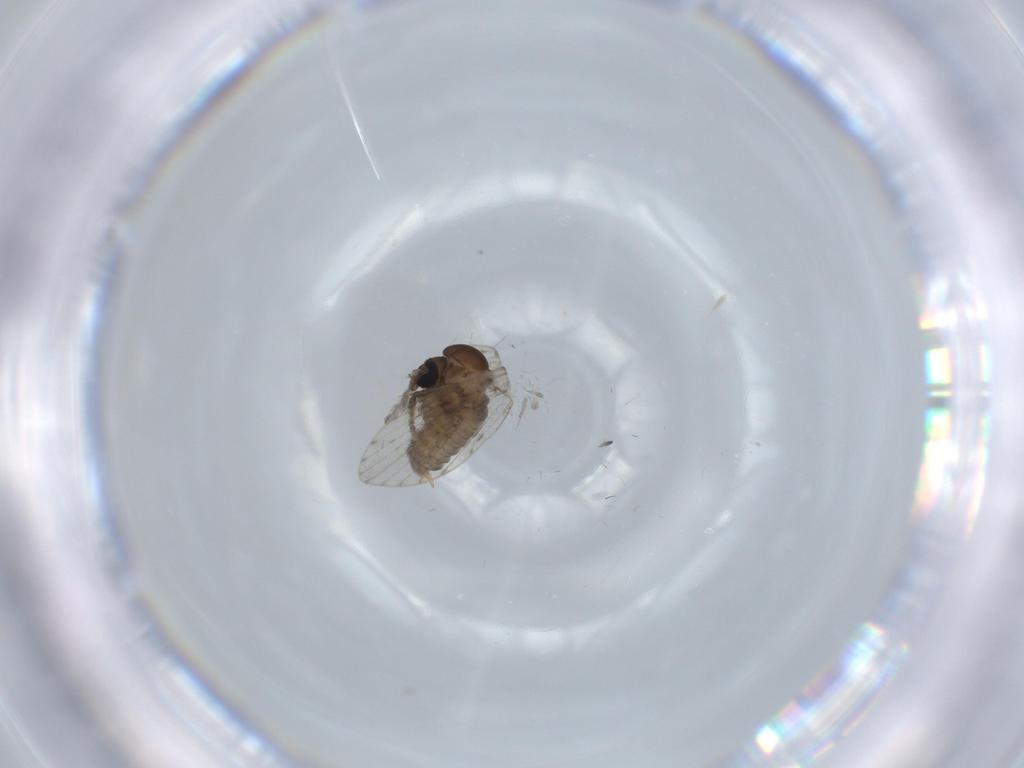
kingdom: Animalia
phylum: Arthropoda
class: Insecta
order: Diptera
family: Psychodidae
